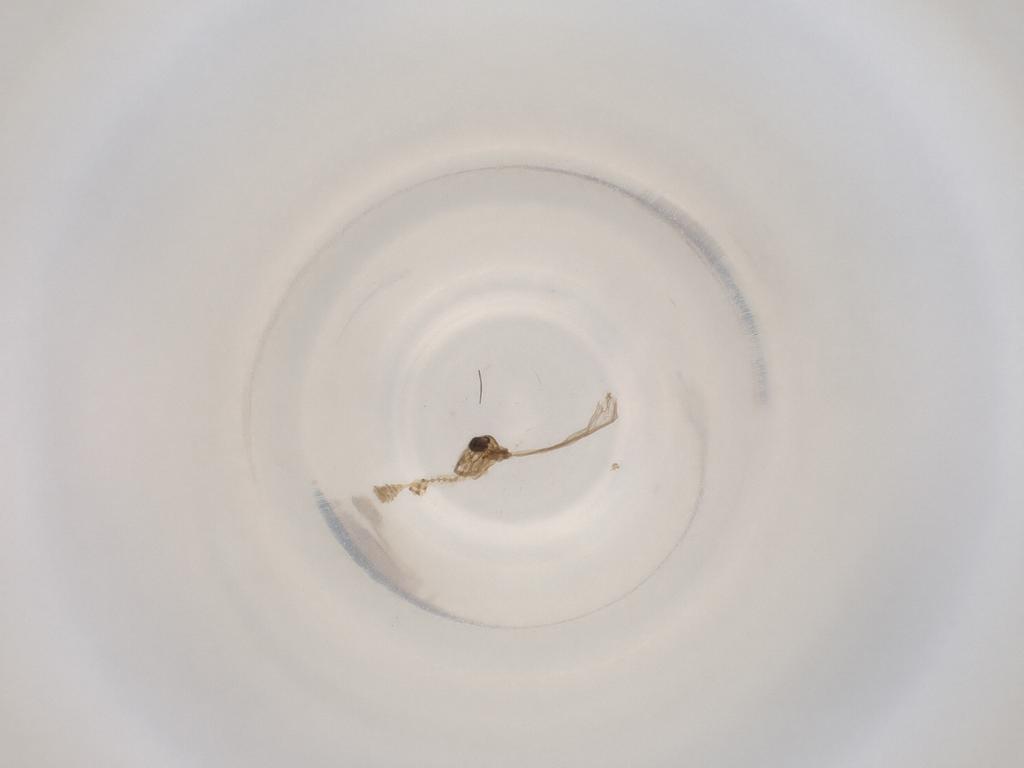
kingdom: Animalia
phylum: Arthropoda
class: Insecta
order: Diptera
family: Cecidomyiidae
